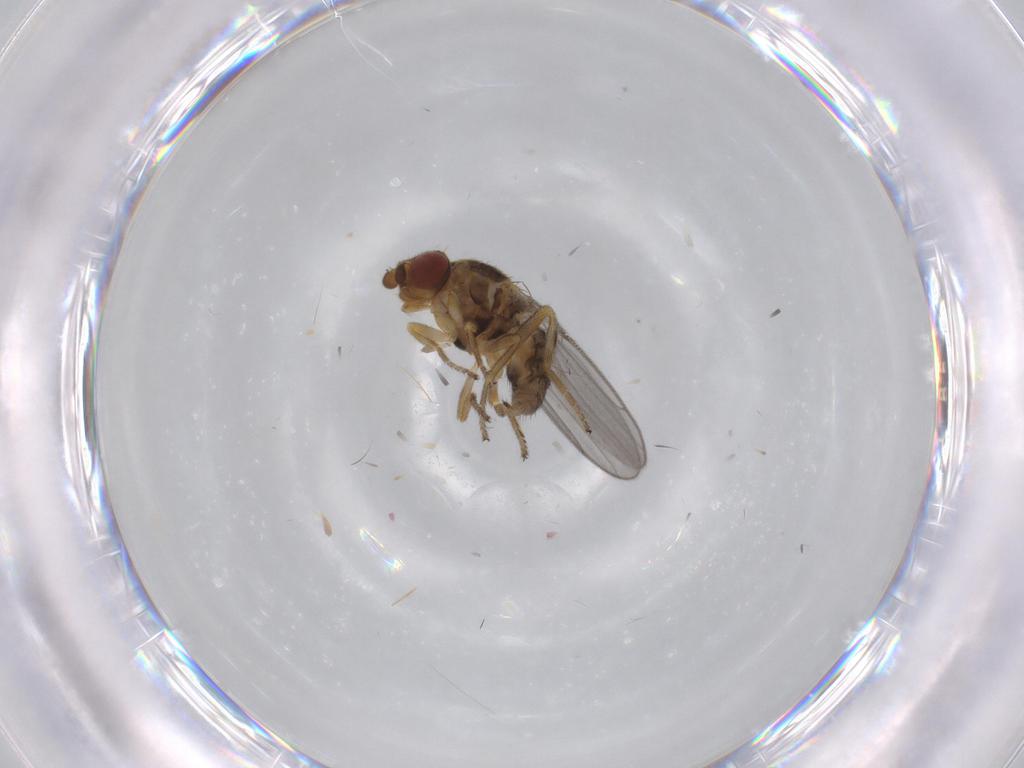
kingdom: Animalia
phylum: Arthropoda
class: Insecta
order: Diptera
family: Chloropidae
